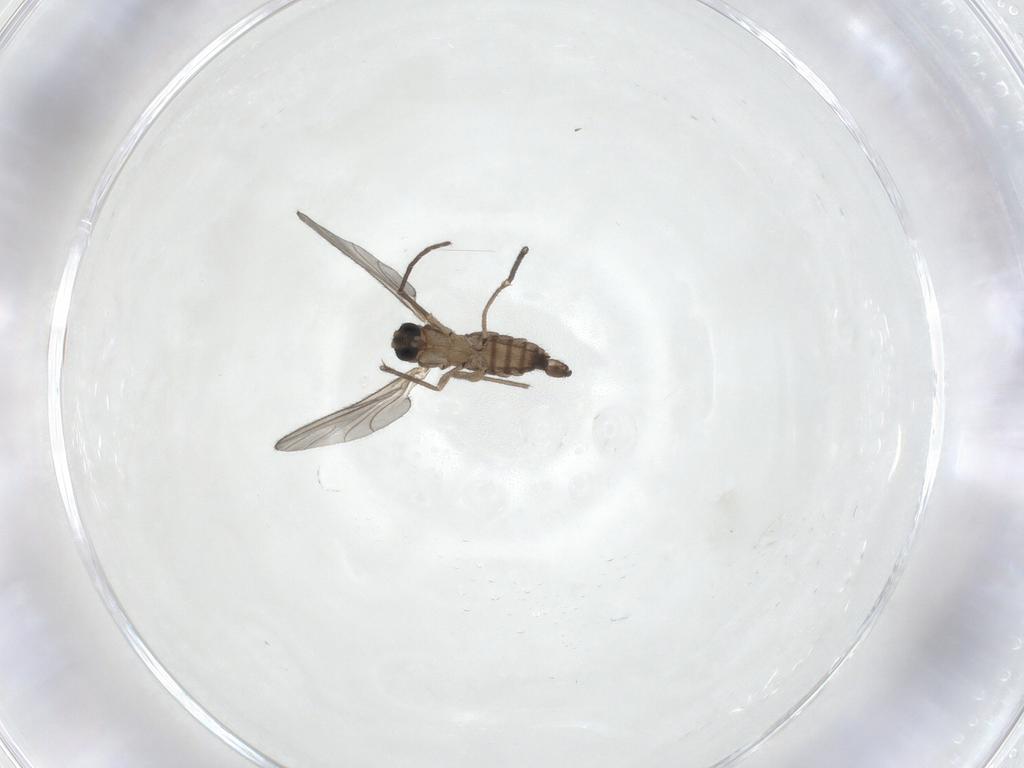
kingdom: Animalia
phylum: Arthropoda
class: Insecta
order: Diptera
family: Sciaridae
